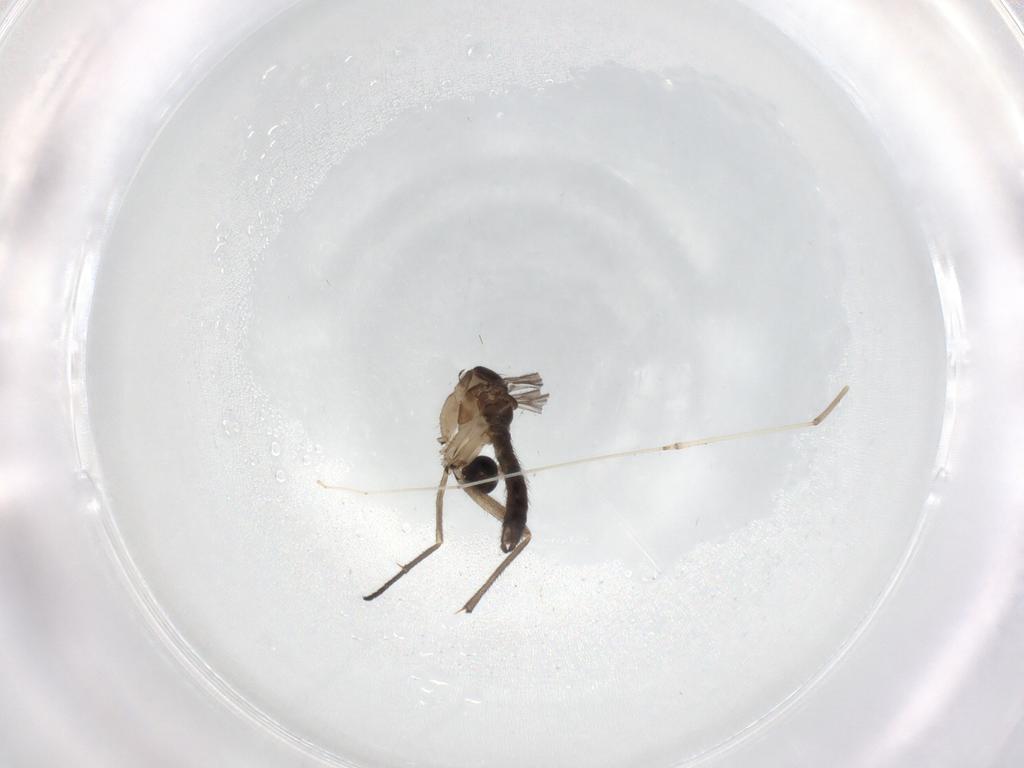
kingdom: Animalia
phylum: Arthropoda
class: Insecta
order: Diptera
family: Sciaridae
